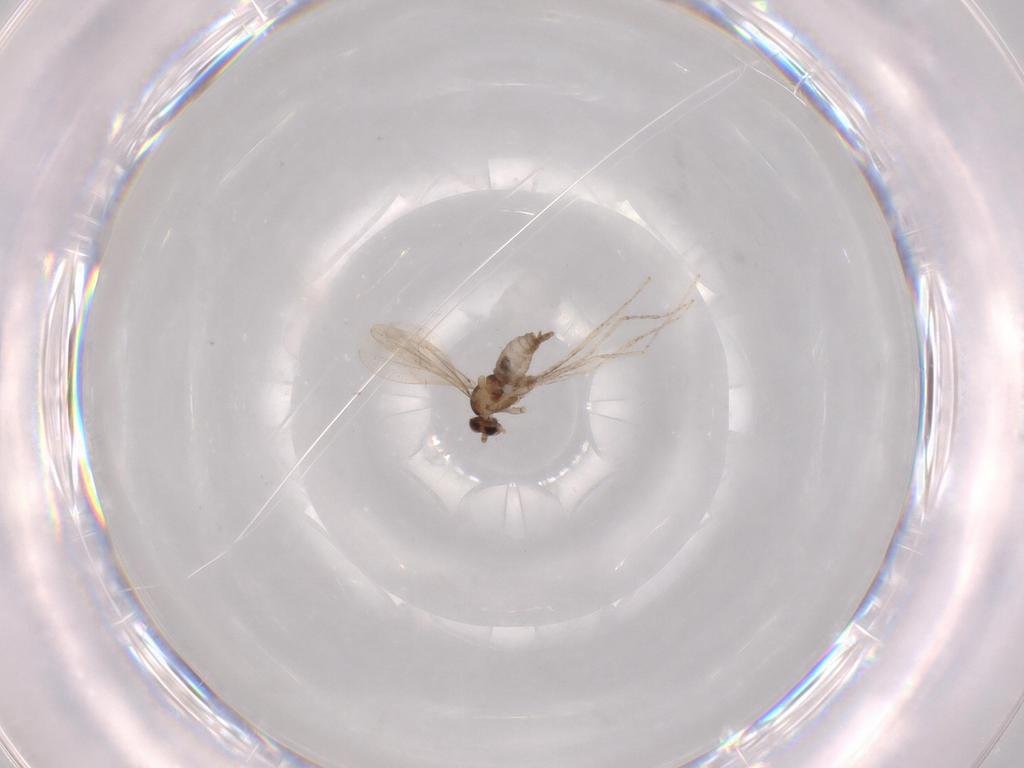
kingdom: Animalia
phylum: Arthropoda
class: Insecta
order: Diptera
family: Cecidomyiidae
